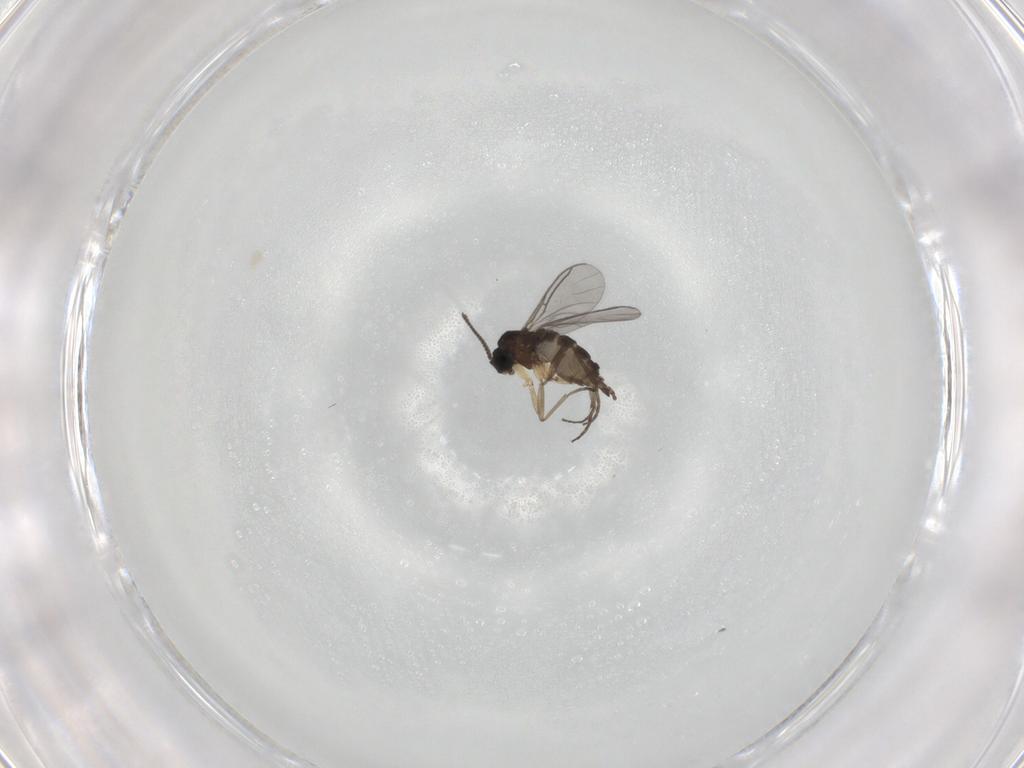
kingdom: Animalia
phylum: Arthropoda
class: Insecta
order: Diptera
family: Sciaridae
